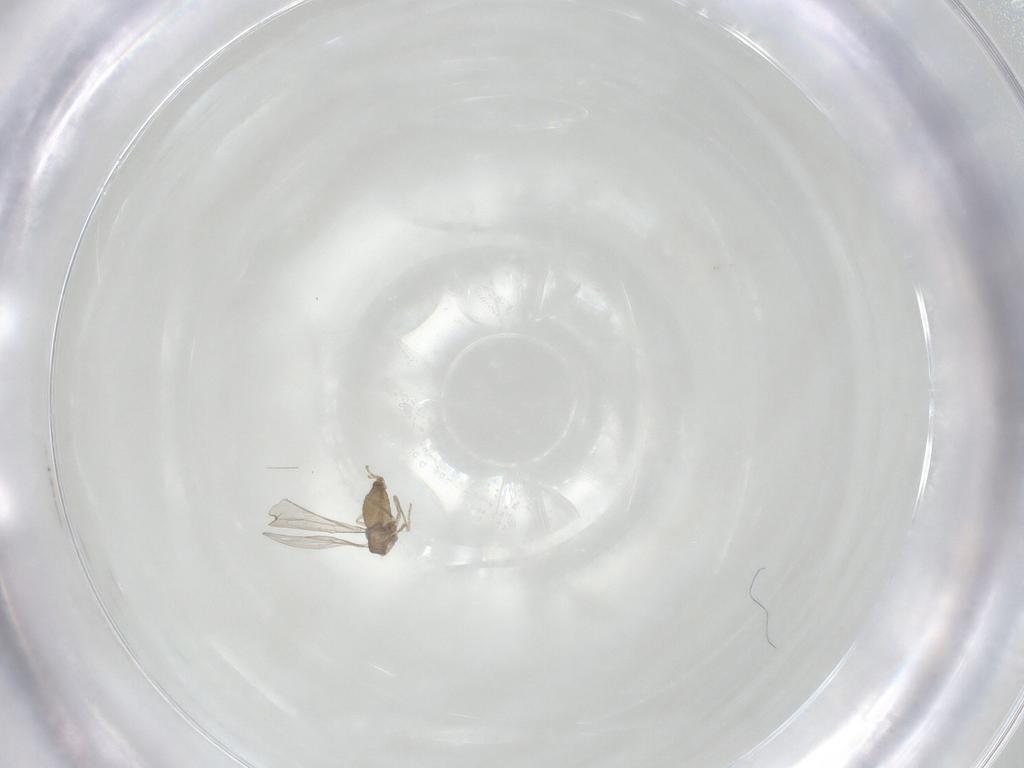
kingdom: Animalia
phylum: Arthropoda
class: Insecta
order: Diptera
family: Cecidomyiidae
